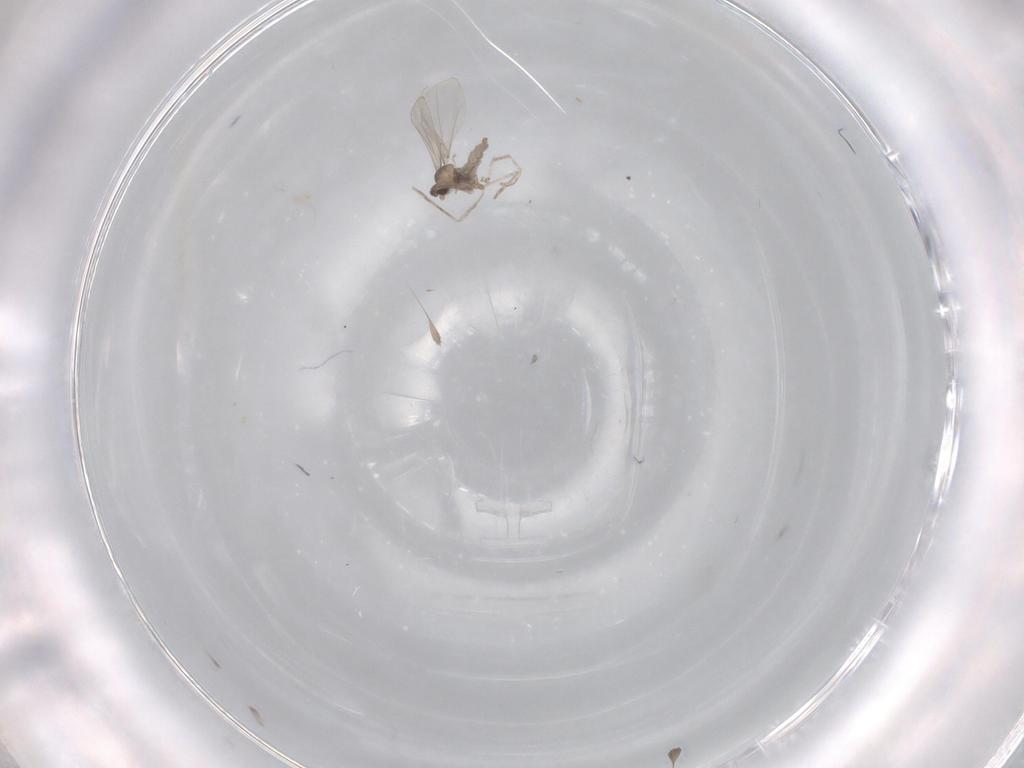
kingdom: Animalia
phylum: Arthropoda
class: Insecta
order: Diptera
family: Cecidomyiidae
